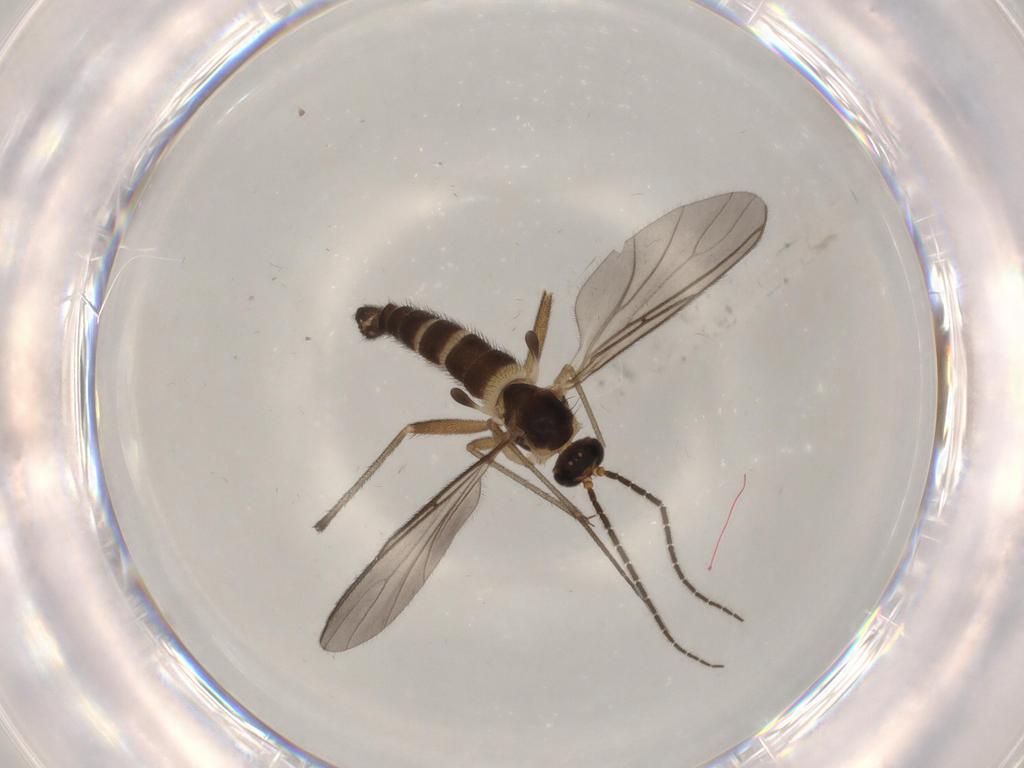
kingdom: Animalia
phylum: Arthropoda
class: Insecta
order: Diptera
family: Sciaridae
